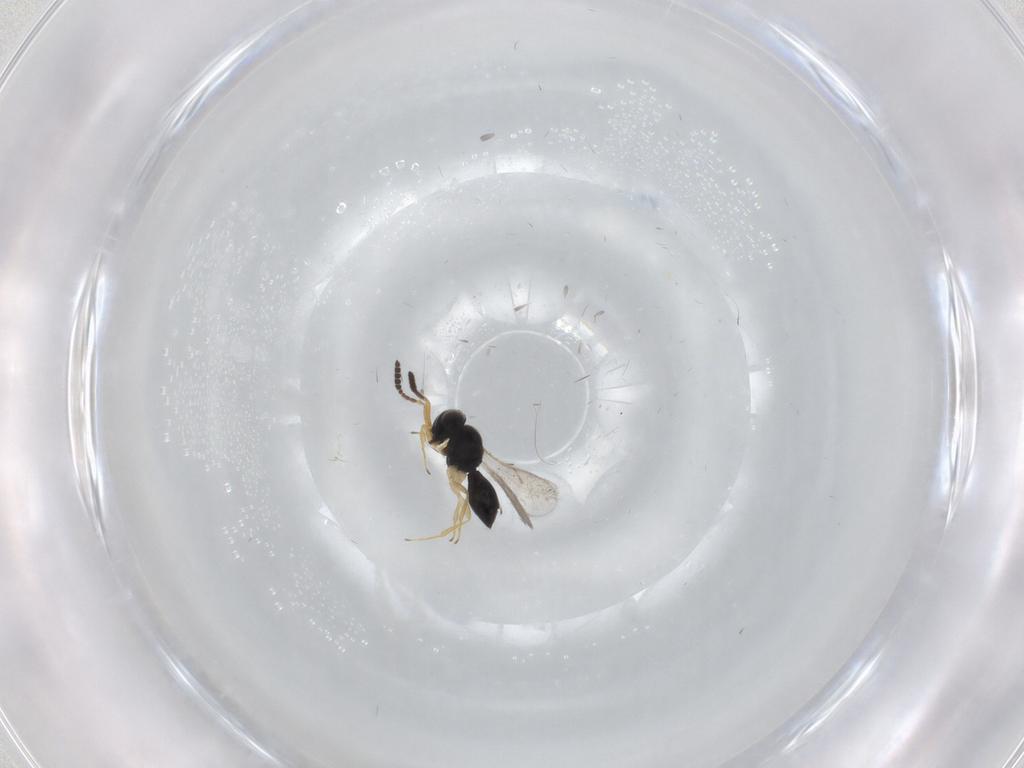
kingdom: Animalia
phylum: Arthropoda
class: Insecta
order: Hymenoptera
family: Scelionidae
